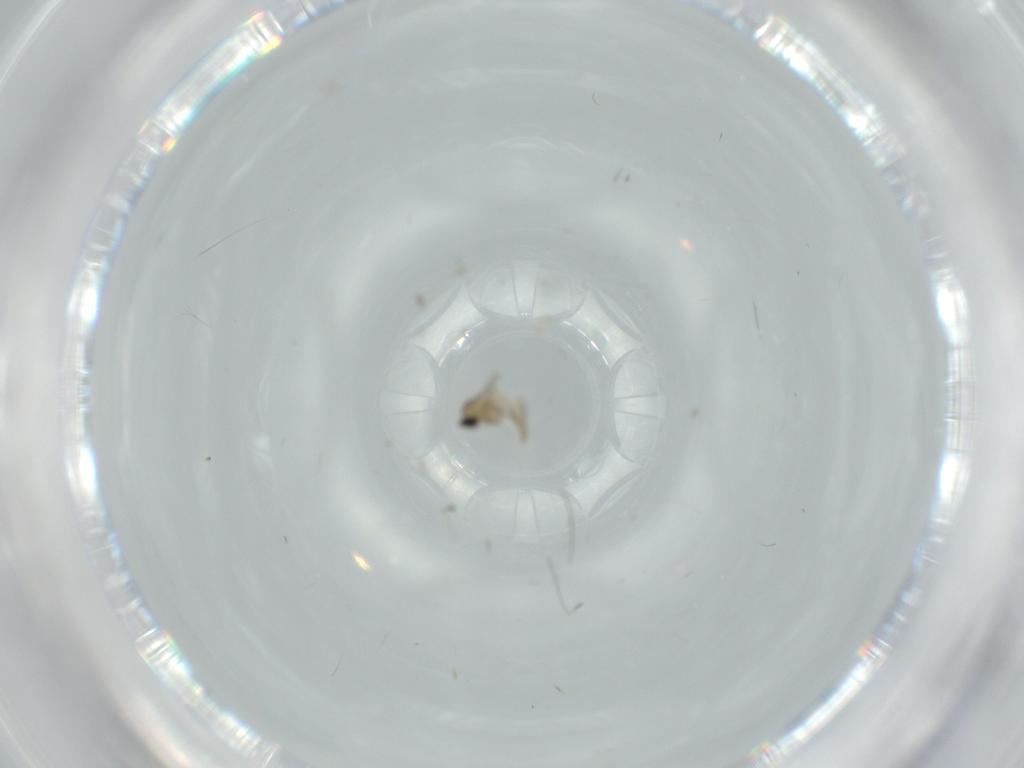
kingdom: Animalia
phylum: Arthropoda
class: Insecta
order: Diptera
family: Cecidomyiidae
